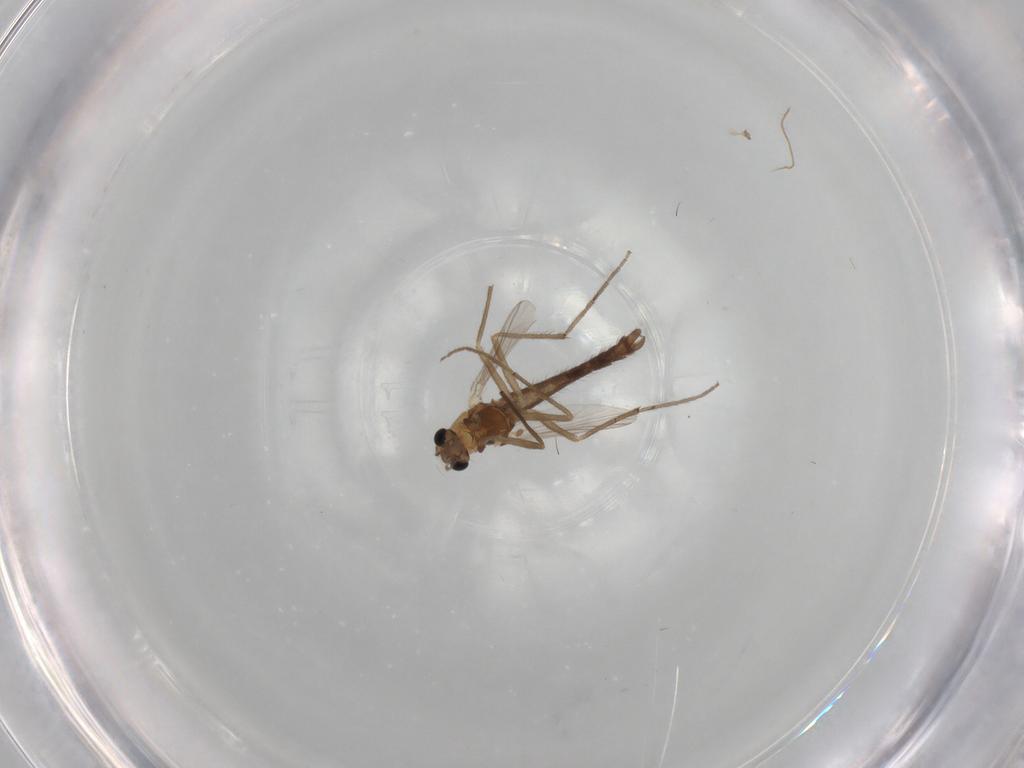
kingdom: Animalia
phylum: Arthropoda
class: Insecta
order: Diptera
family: Chironomidae
